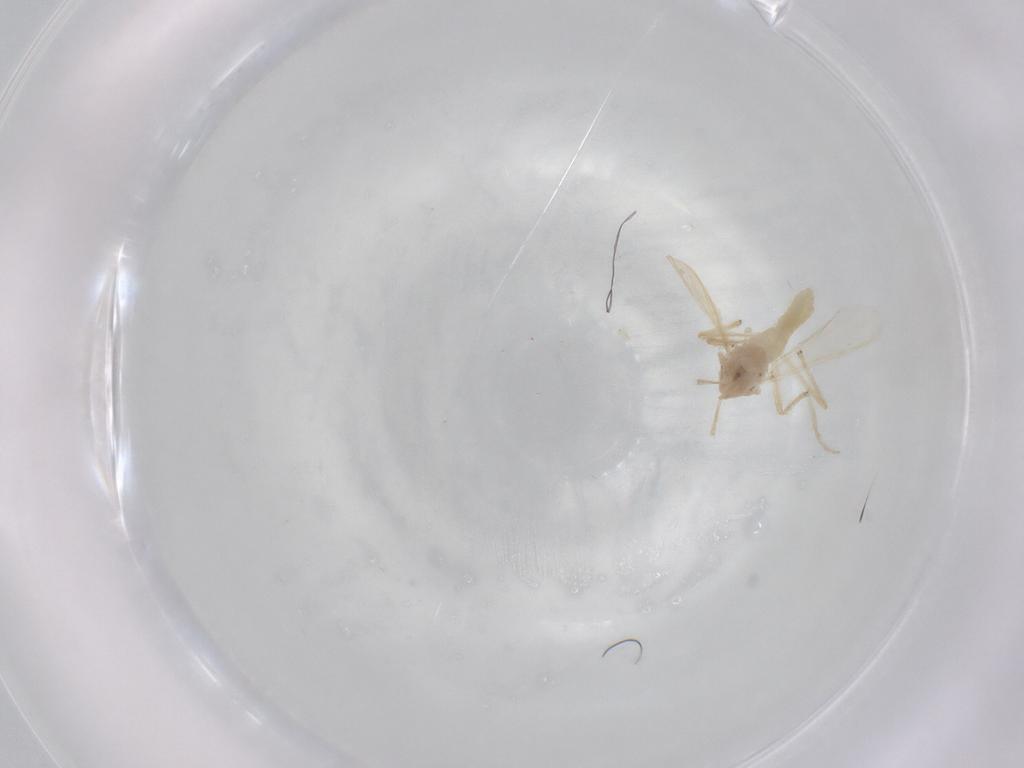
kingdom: Animalia
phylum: Arthropoda
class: Insecta
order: Diptera
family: Chironomidae
